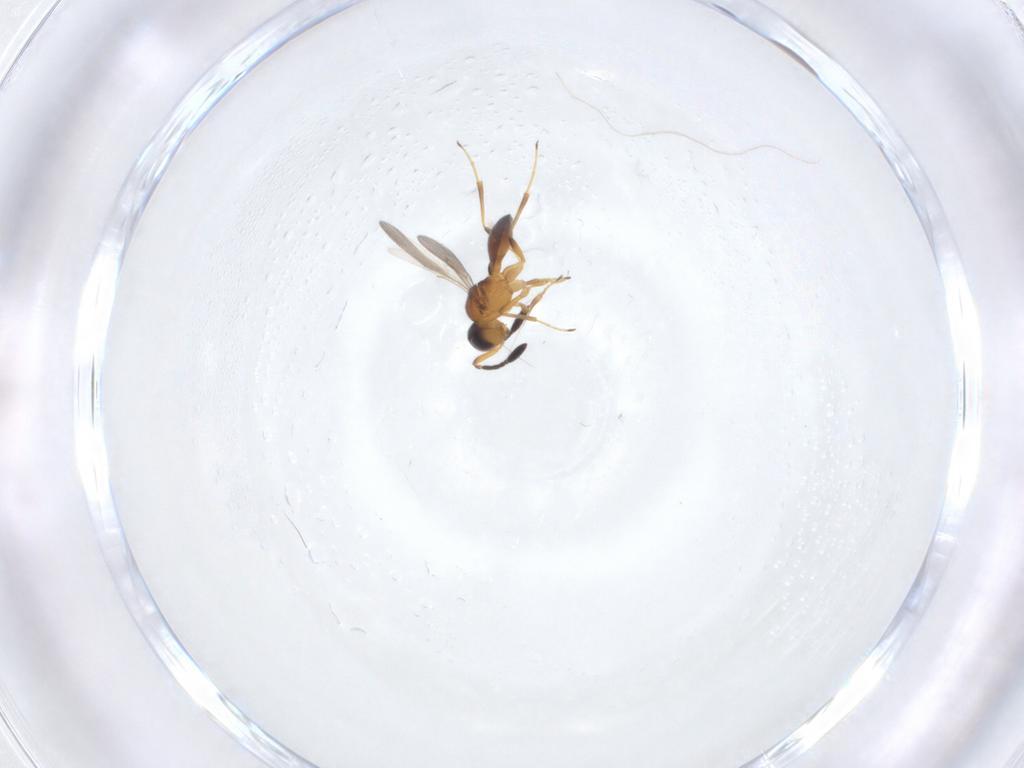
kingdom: Animalia
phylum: Arthropoda
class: Insecta
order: Hymenoptera
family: Scelionidae
